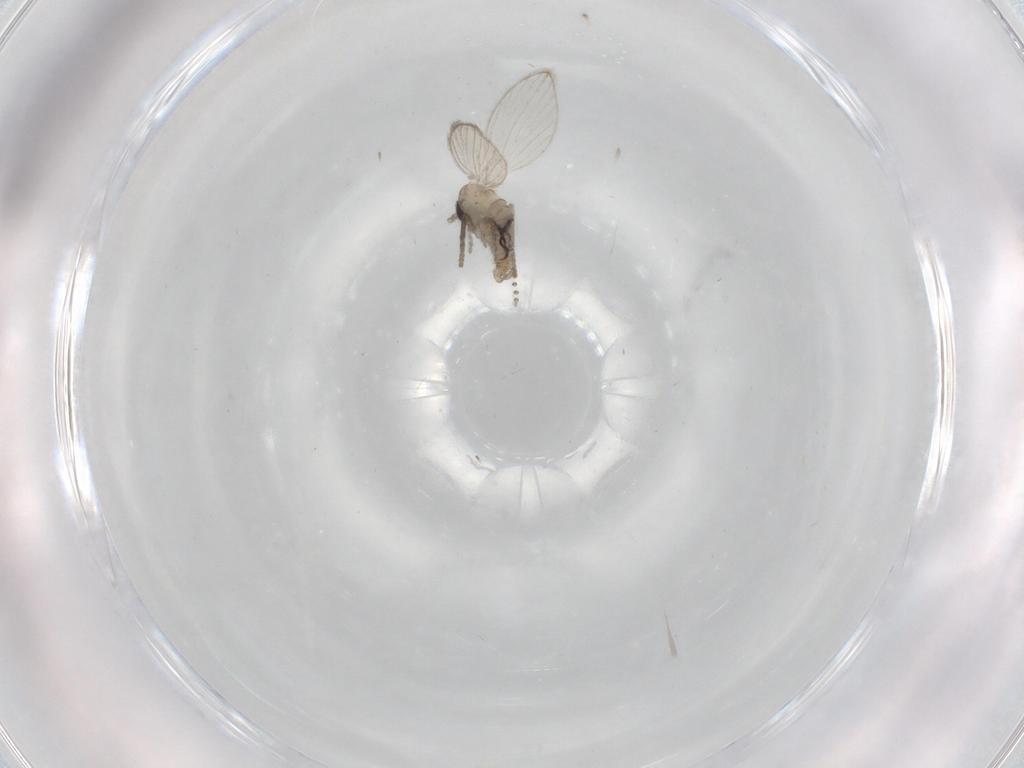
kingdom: Animalia
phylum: Arthropoda
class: Insecta
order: Diptera
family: Psychodidae
